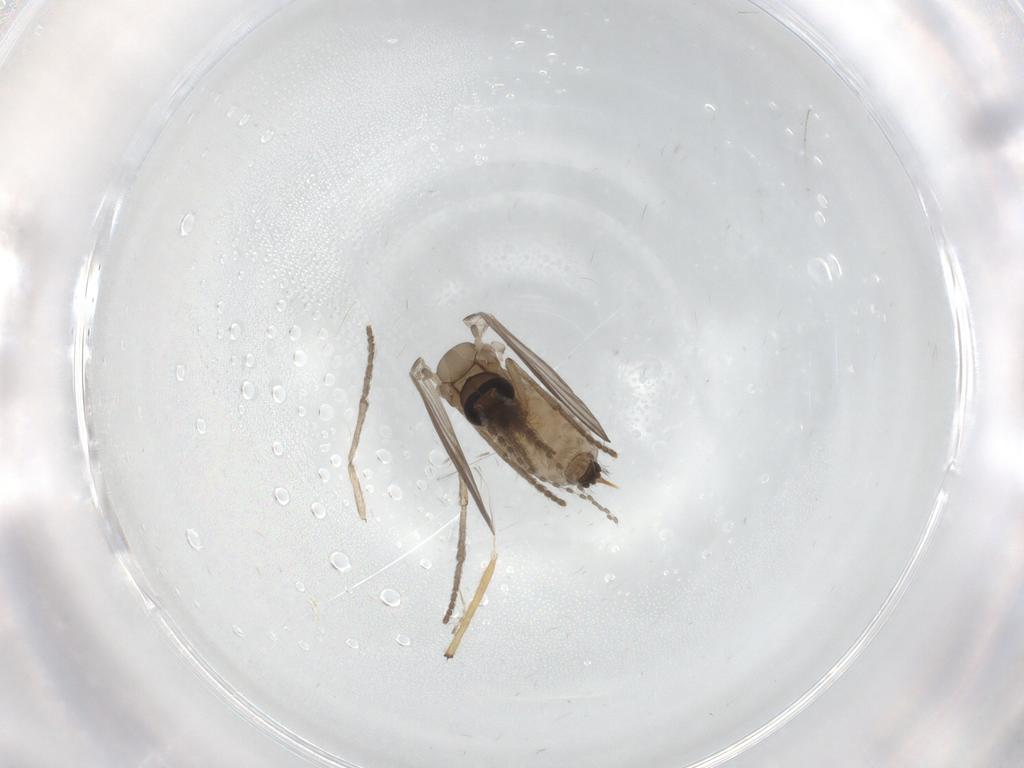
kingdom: Animalia
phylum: Arthropoda
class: Insecta
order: Diptera
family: Psychodidae
